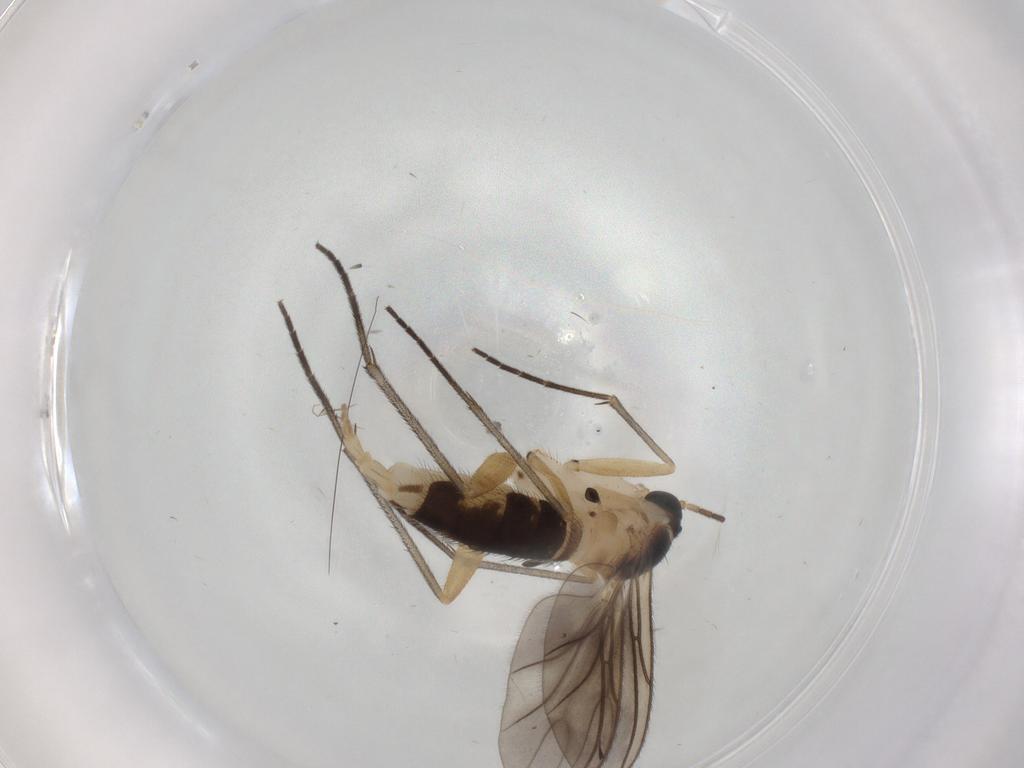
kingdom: Animalia
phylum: Arthropoda
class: Insecta
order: Diptera
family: Sciaridae
